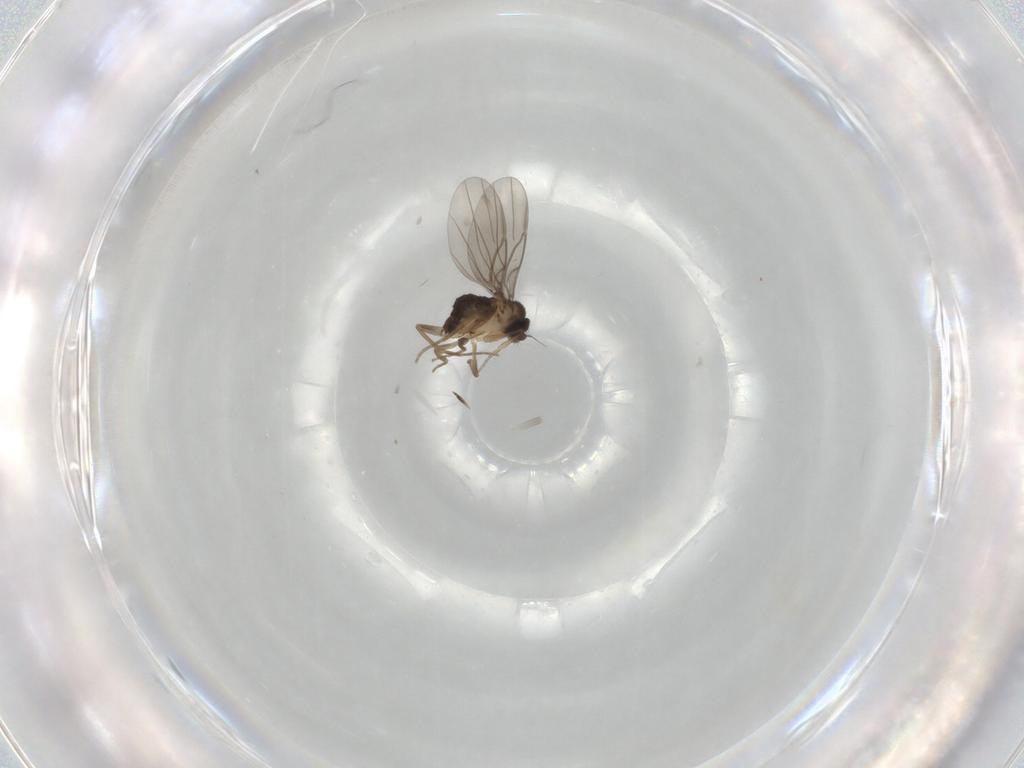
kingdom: Animalia
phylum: Arthropoda
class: Insecta
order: Diptera
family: Phoridae
